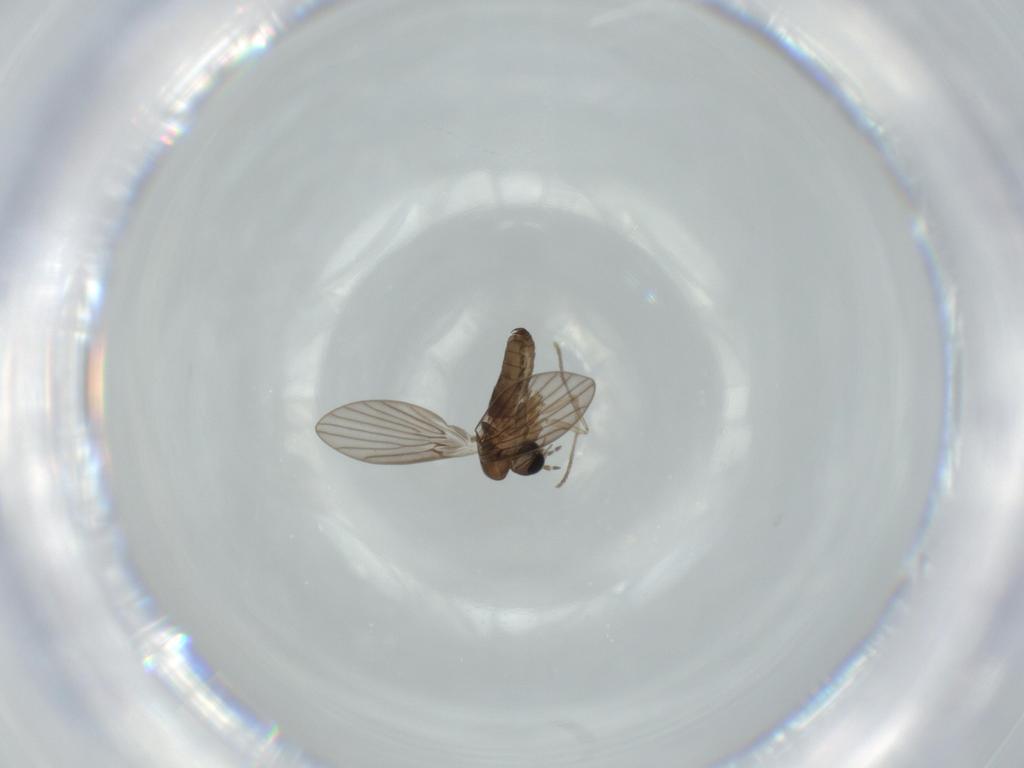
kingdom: Animalia
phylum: Arthropoda
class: Insecta
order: Diptera
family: Psychodidae
